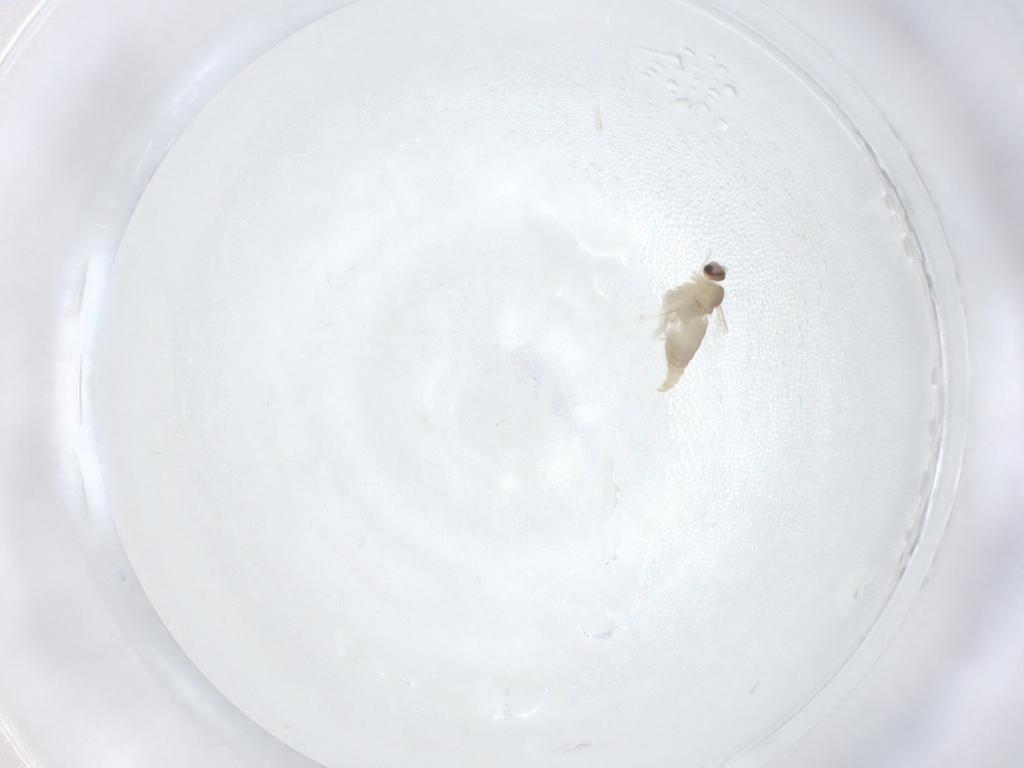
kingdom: Animalia
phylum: Arthropoda
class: Insecta
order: Diptera
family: Cecidomyiidae
